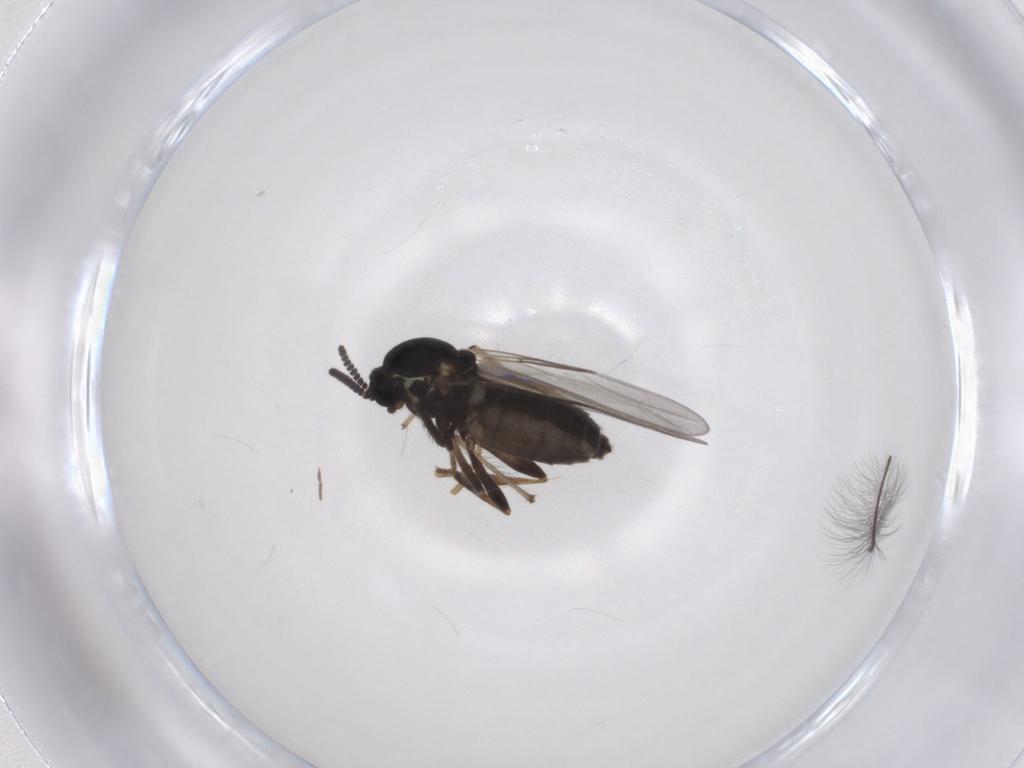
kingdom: Animalia
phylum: Arthropoda
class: Insecta
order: Diptera
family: Scatopsidae
